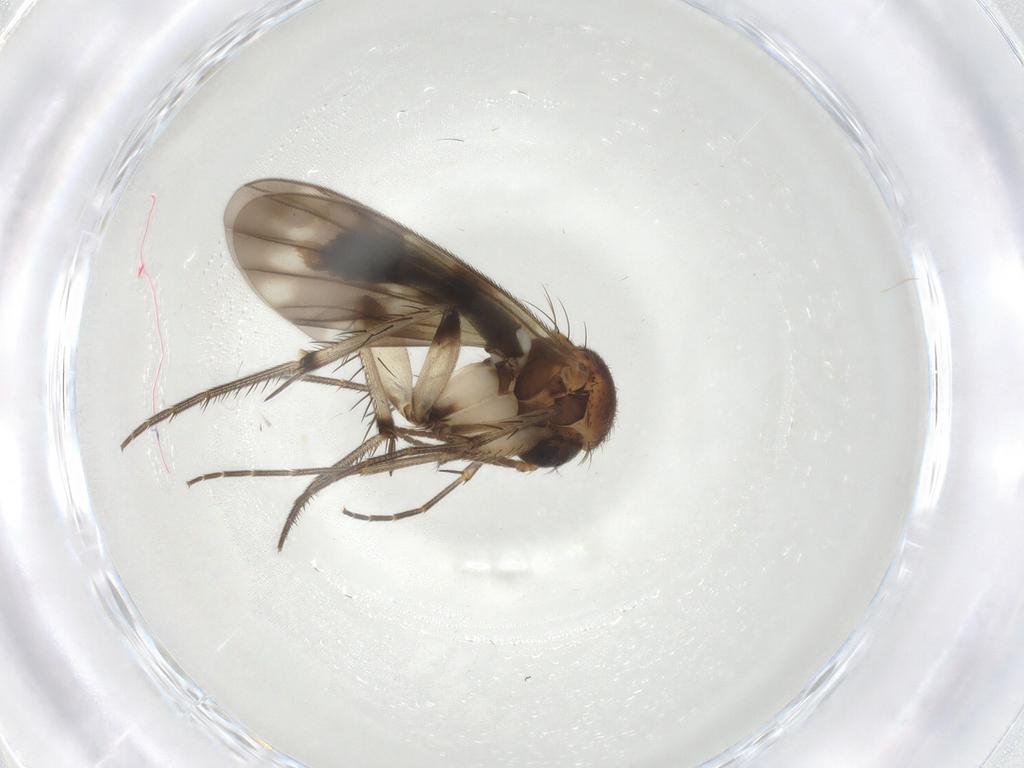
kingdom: Animalia
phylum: Arthropoda
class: Insecta
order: Diptera
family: Mycetophilidae
